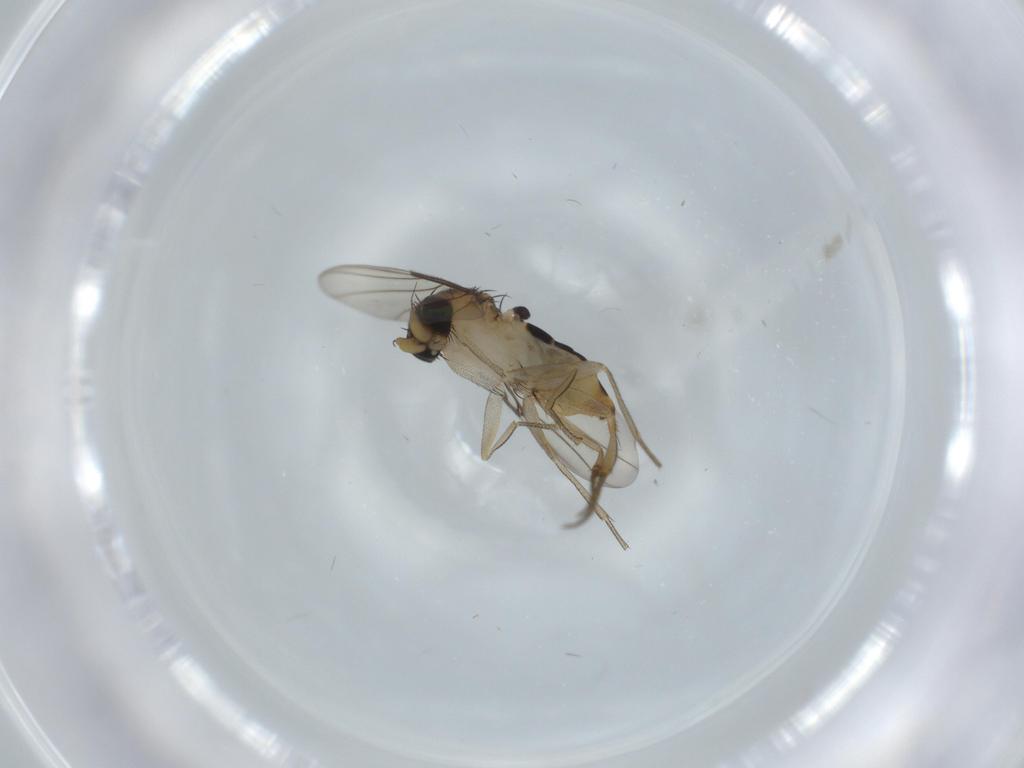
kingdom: Animalia
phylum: Arthropoda
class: Insecta
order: Diptera
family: Phoridae
